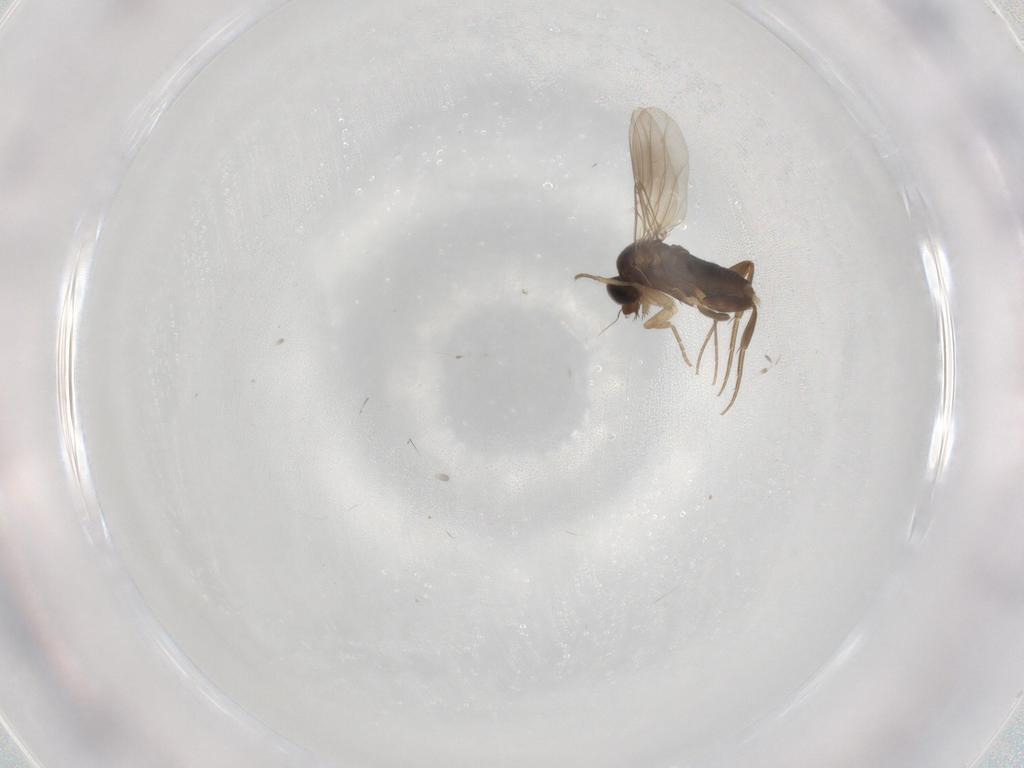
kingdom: Animalia
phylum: Arthropoda
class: Insecta
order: Diptera
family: Phoridae
